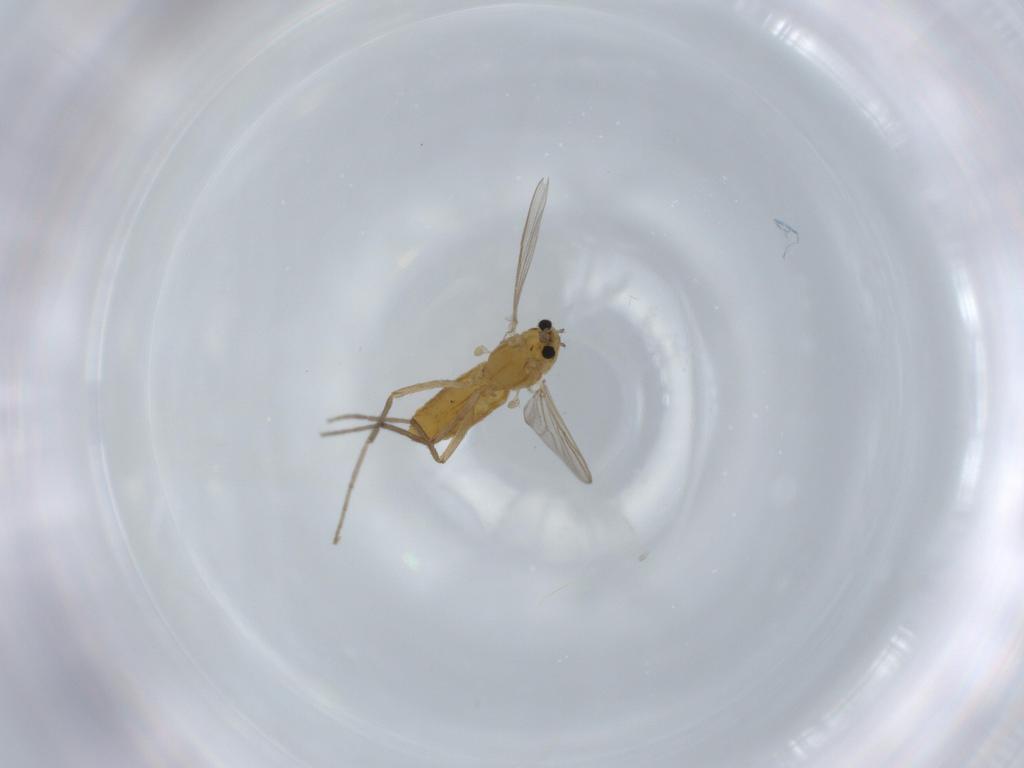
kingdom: Animalia
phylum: Arthropoda
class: Insecta
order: Diptera
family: Chironomidae
